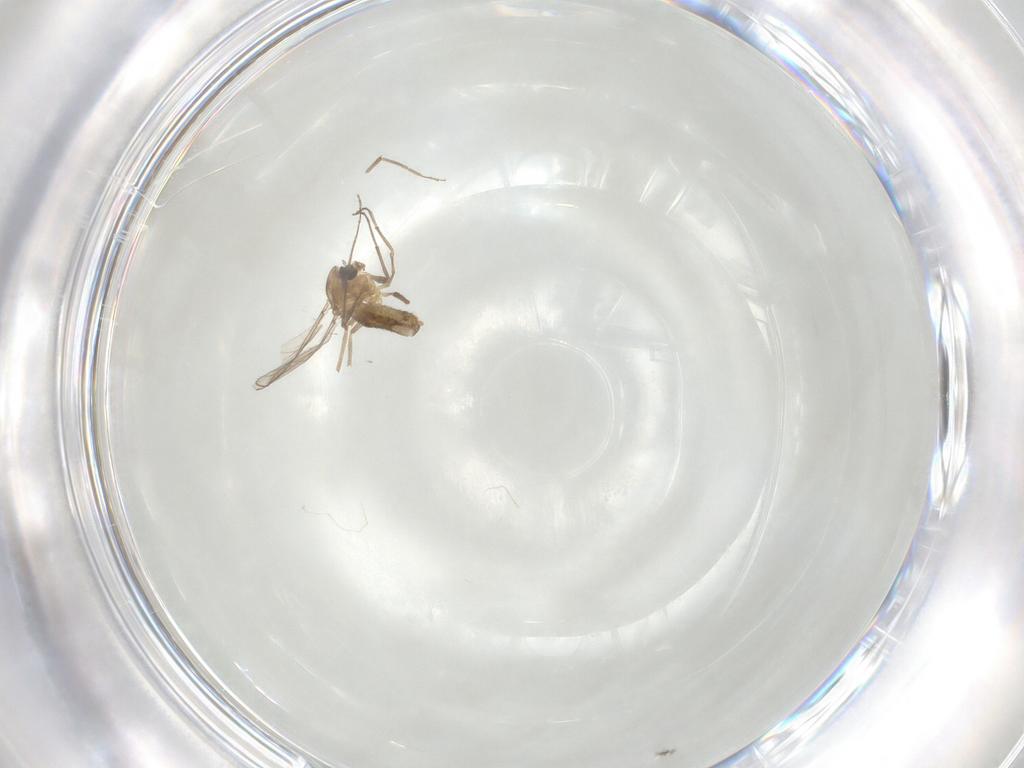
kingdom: Animalia
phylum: Arthropoda
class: Insecta
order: Diptera
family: Chironomidae
